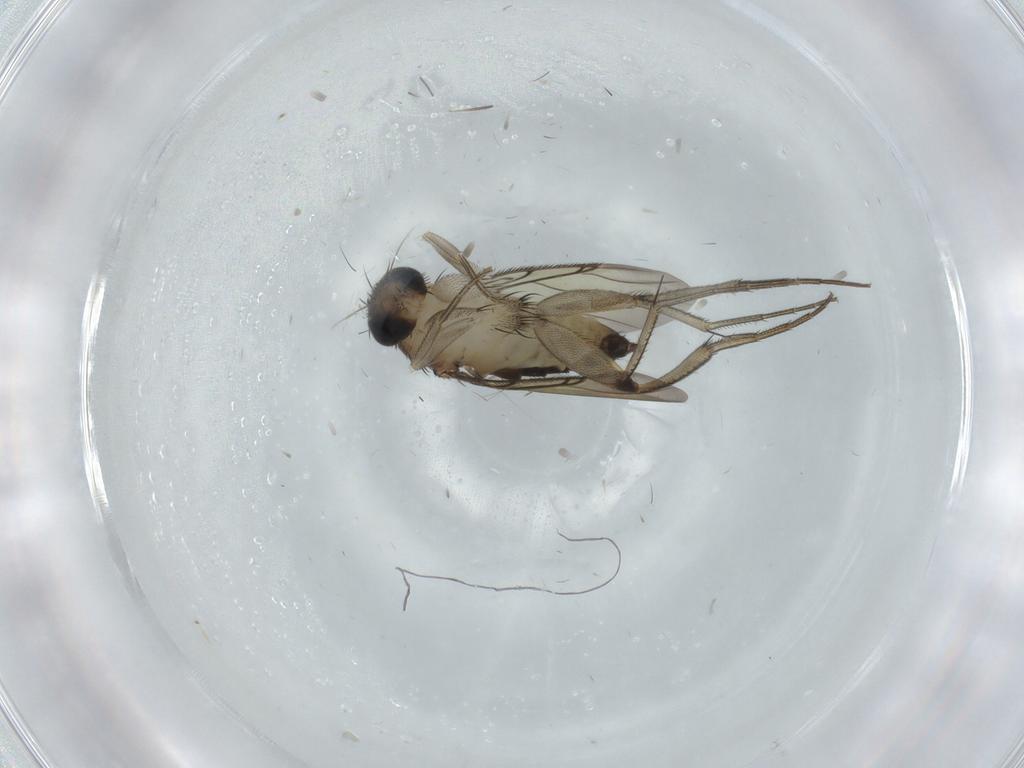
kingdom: Animalia
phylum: Arthropoda
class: Insecta
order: Diptera
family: Phoridae
